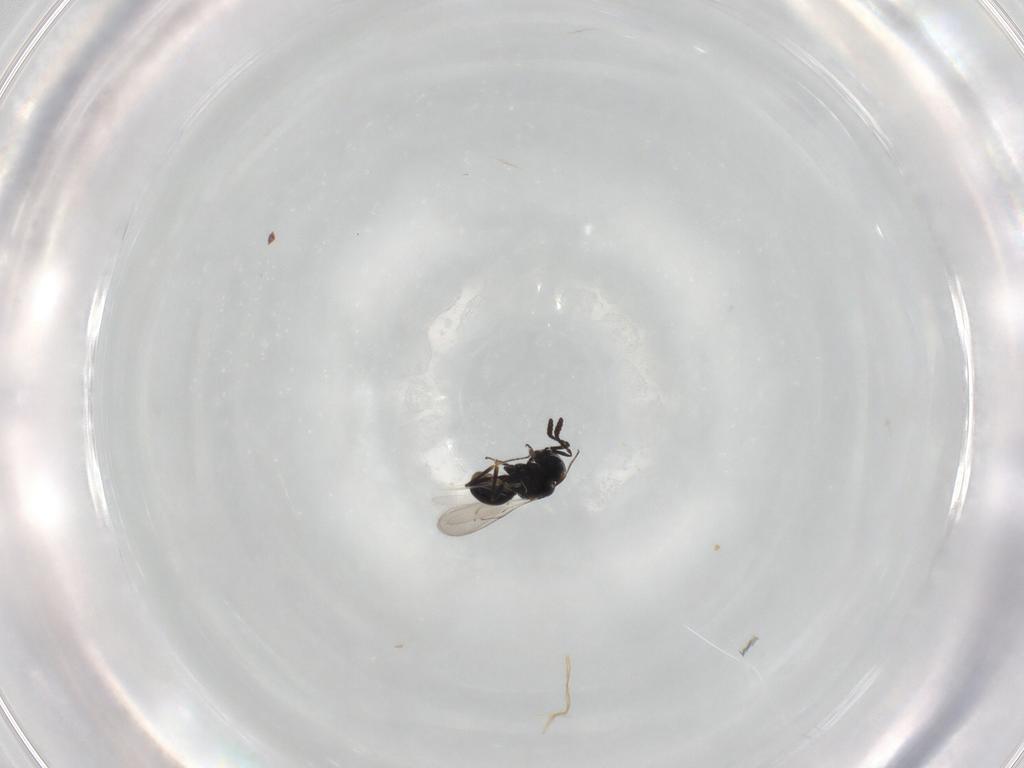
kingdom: Animalia
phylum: Arthropoda
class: Insecta
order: Hymenoptera
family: Scelionidae
